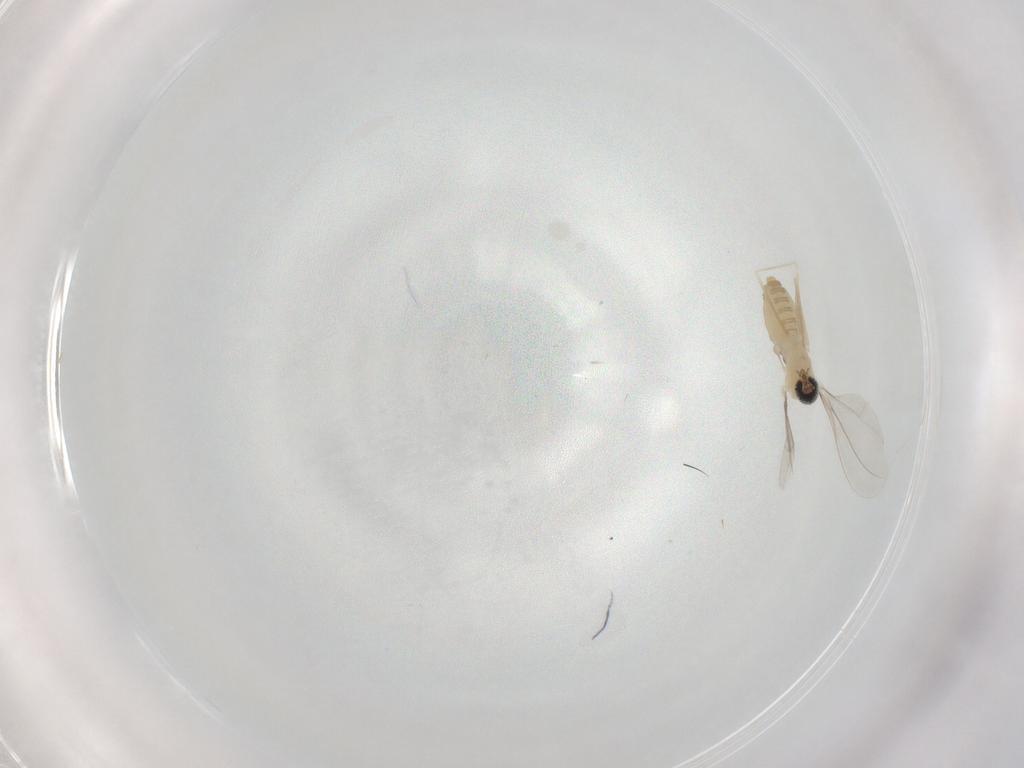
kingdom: Animalia
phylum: Arthropoda
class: Insecta
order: Diptera
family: Cecidomyiidae
